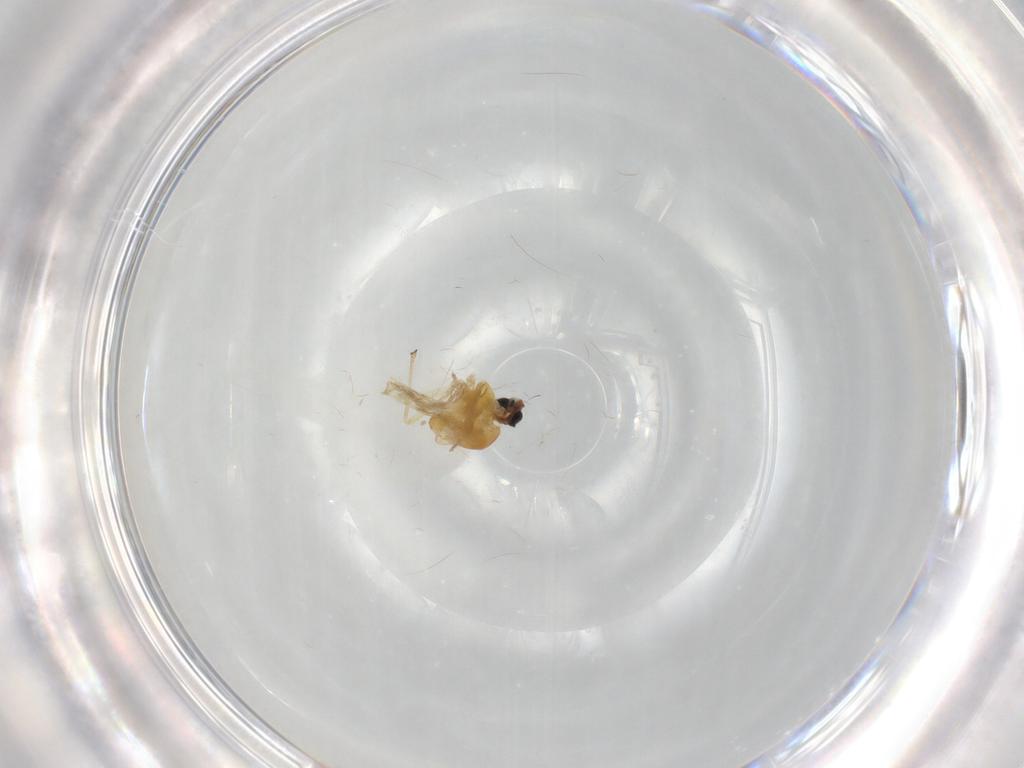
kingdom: Animalia
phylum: Arthropoda
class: Insecta
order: Diptera
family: Chironomidae
